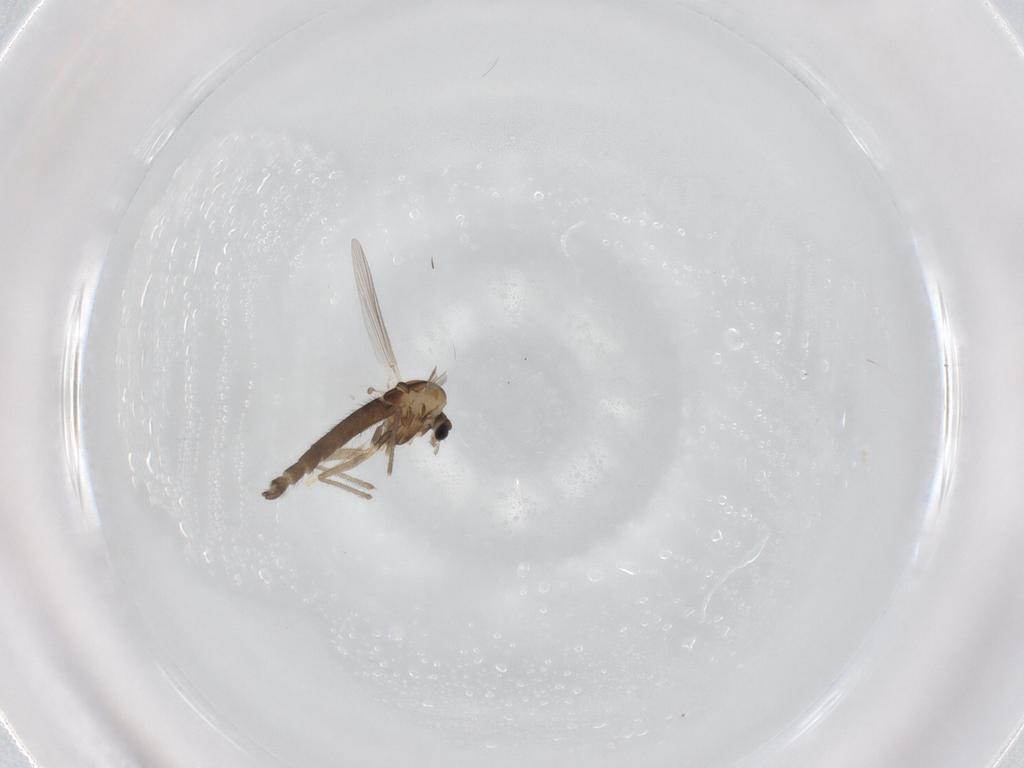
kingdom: Animalia
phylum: Arthropoda
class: Insecta
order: Diptera
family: Chironomidae
